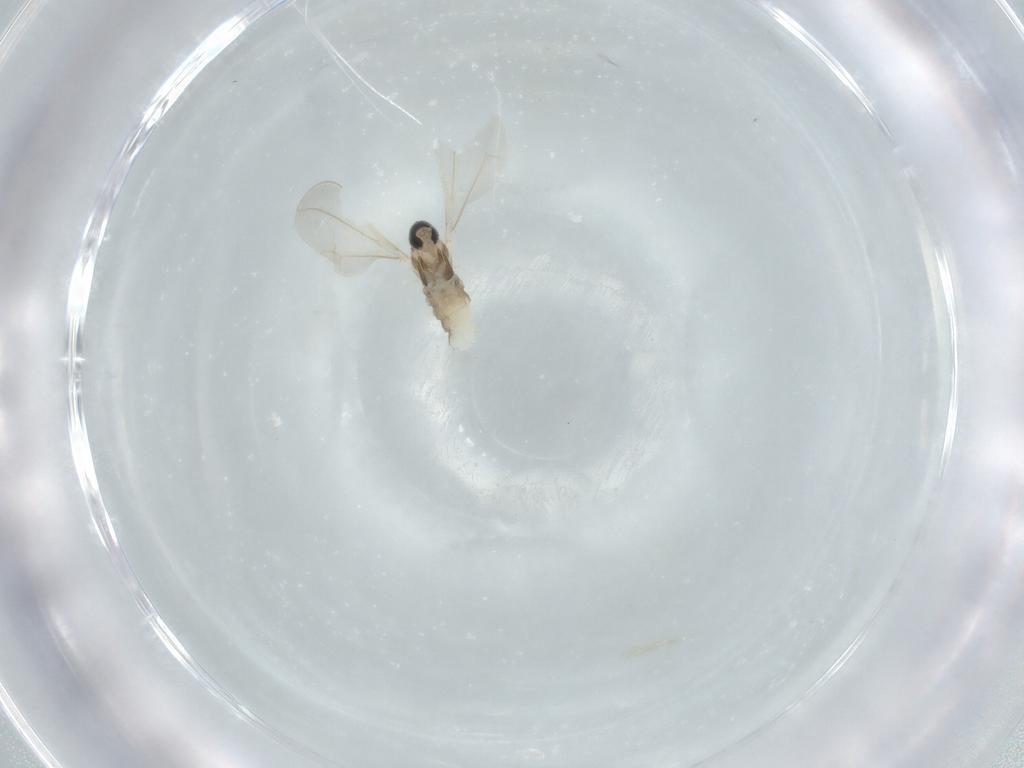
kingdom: Animalia
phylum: Arthropoda
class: Insecta
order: Diptera
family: Cecidomyiidae
